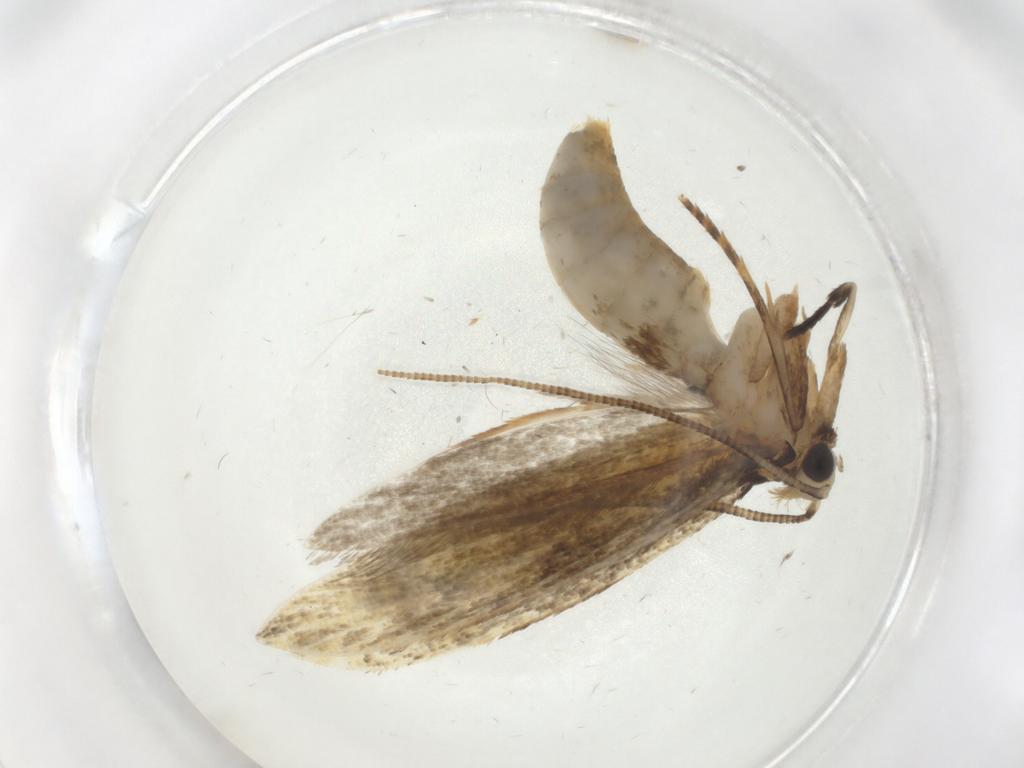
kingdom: Animalia
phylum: Arthropoda
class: Insecta
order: Lepidoptera
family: Tineidae
